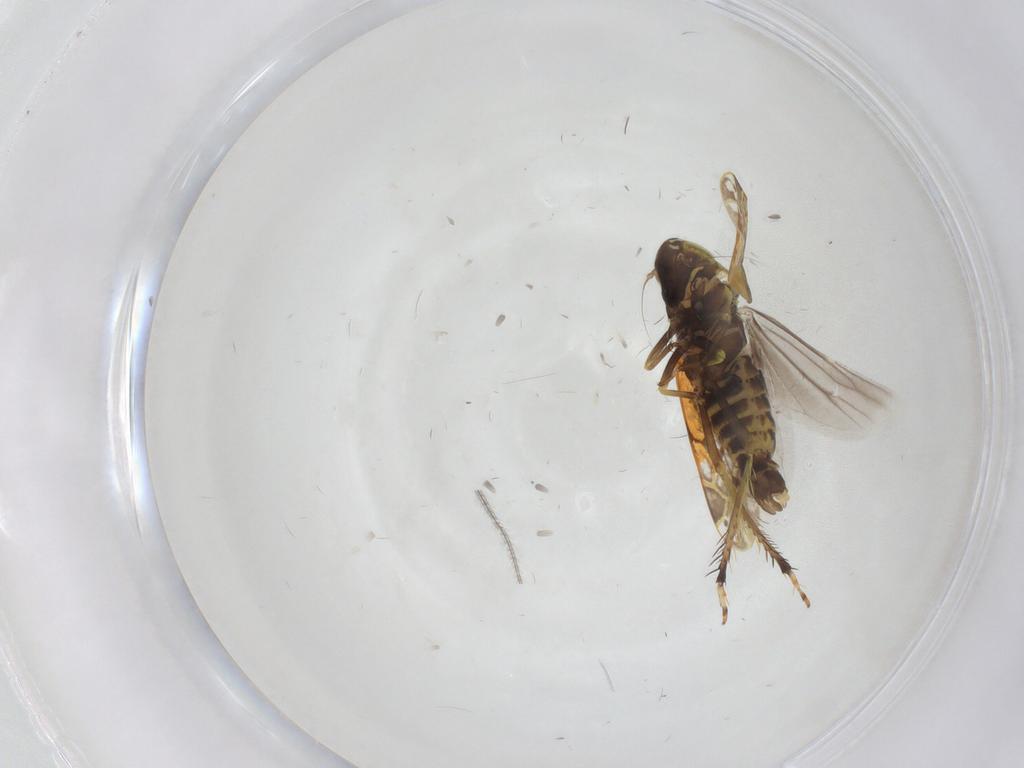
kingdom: Animalia
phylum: Arthropoda
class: Insecta
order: Hemiptera
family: Cicadellidae
